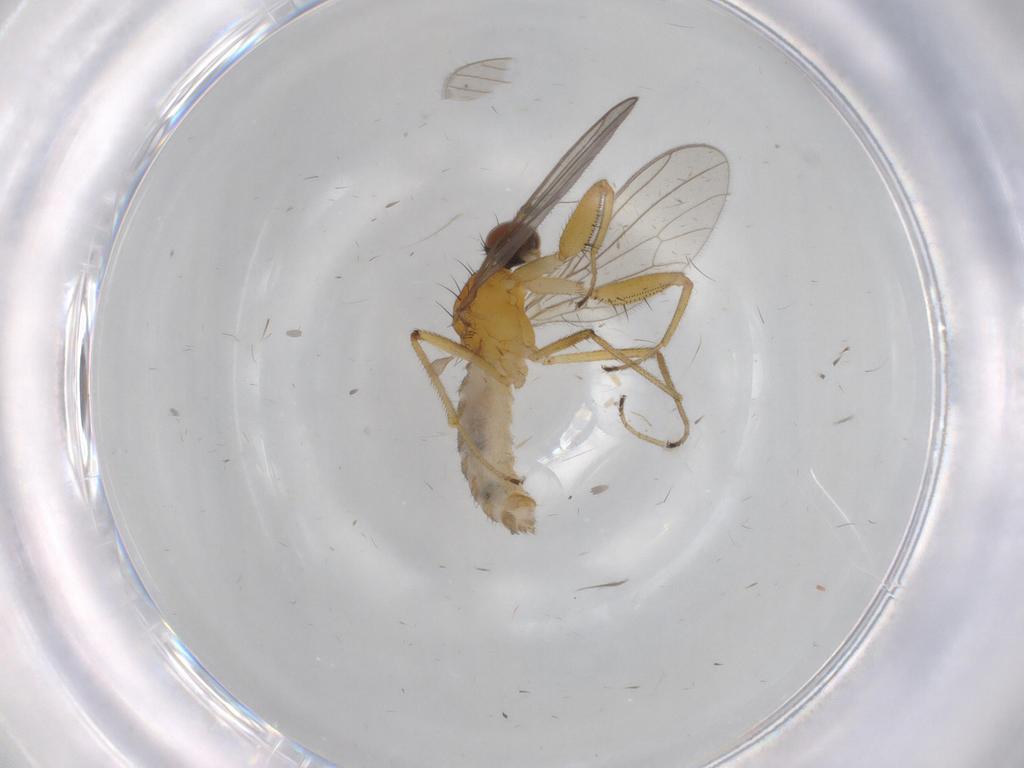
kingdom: Animalia
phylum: Arthropoda
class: Insecta
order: Diptera
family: Empididae
